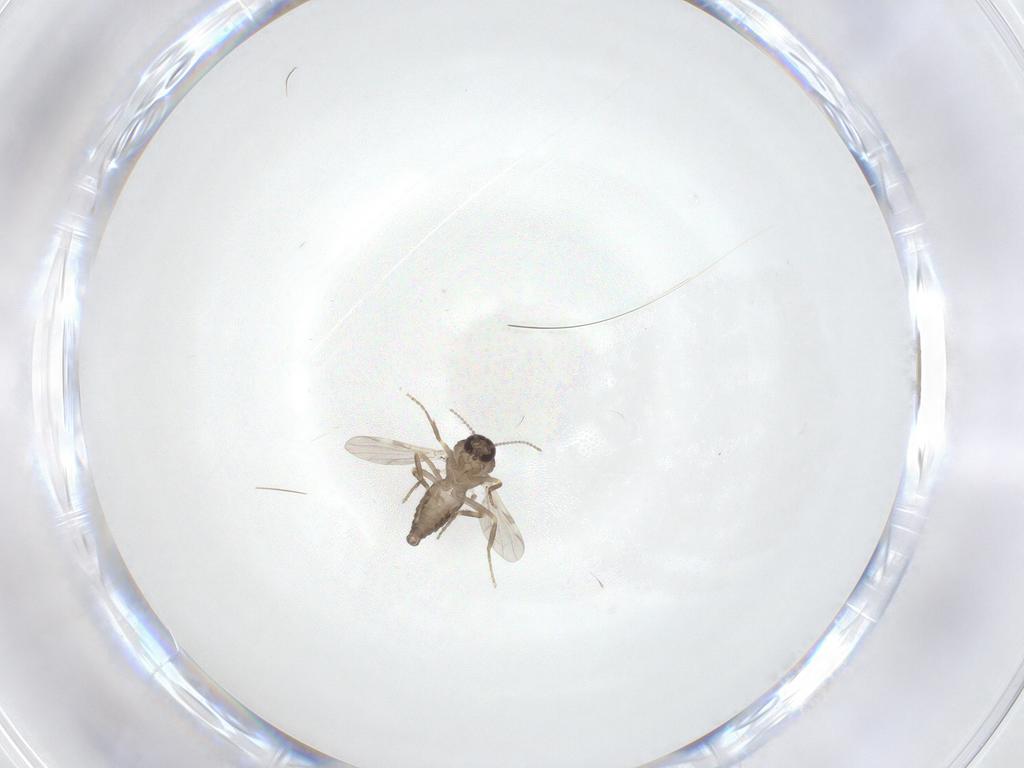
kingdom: Animalia
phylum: Arthropoda
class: Insecta
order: Diptera
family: Ceratopogonidae
